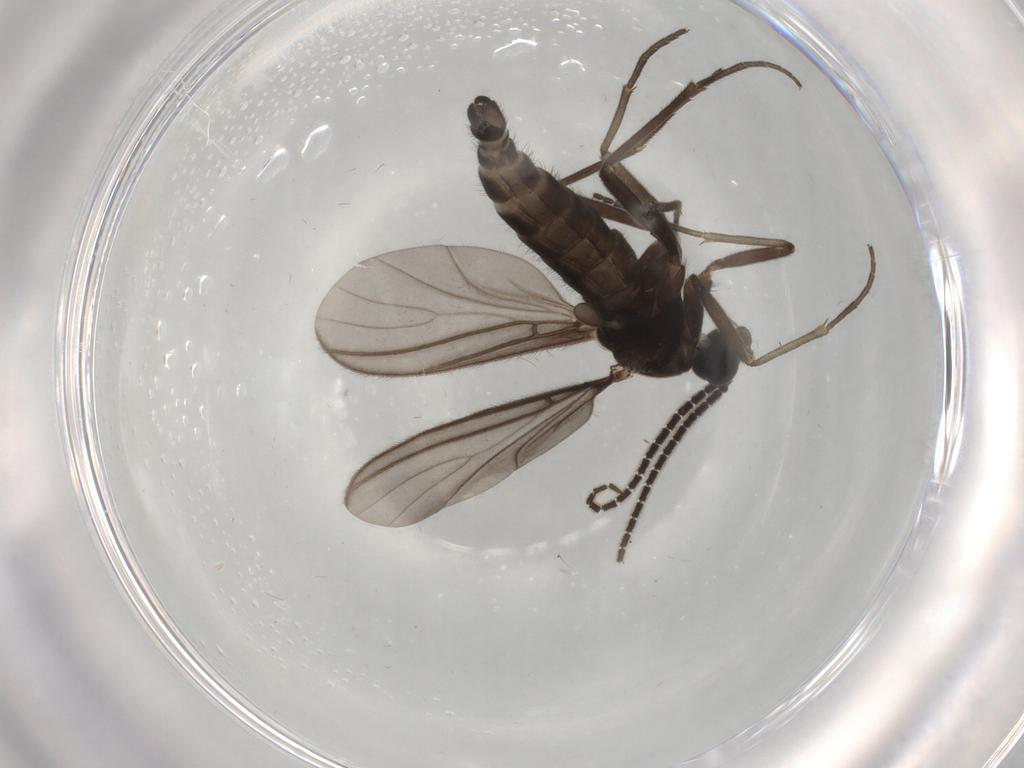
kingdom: Animalia
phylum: Arthropoda
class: Insecta
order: Diptera
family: Sciaridae
